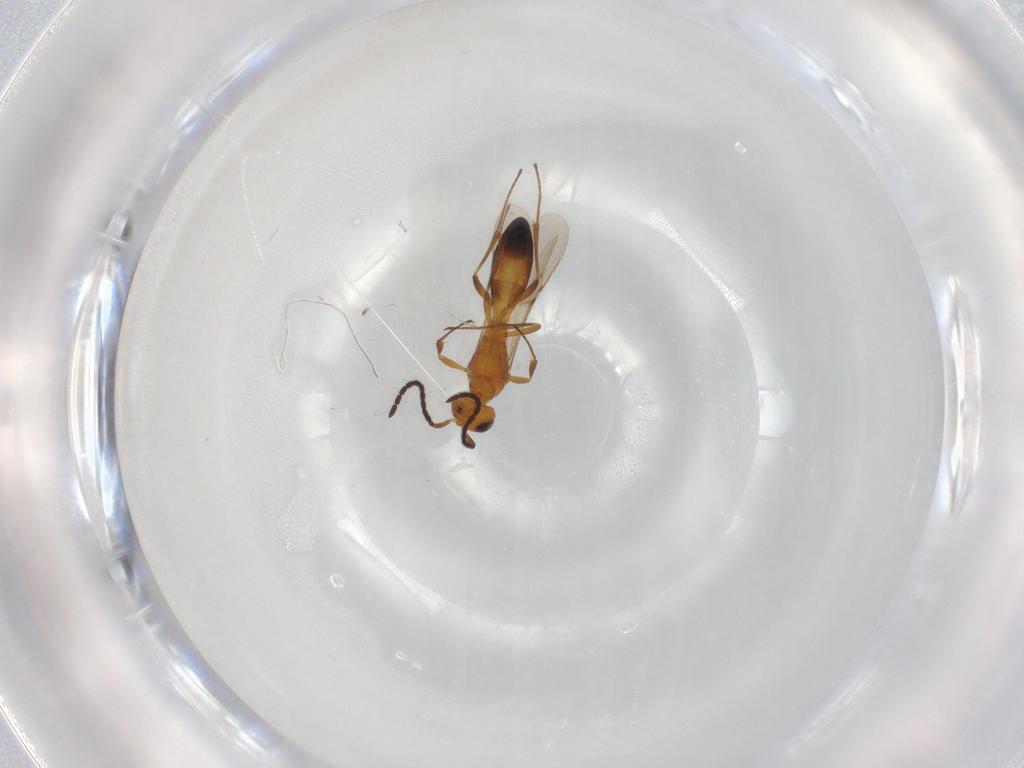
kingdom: Animalia
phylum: Arthropoda
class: Insecta
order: Hymenoptera
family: Scelionidae
